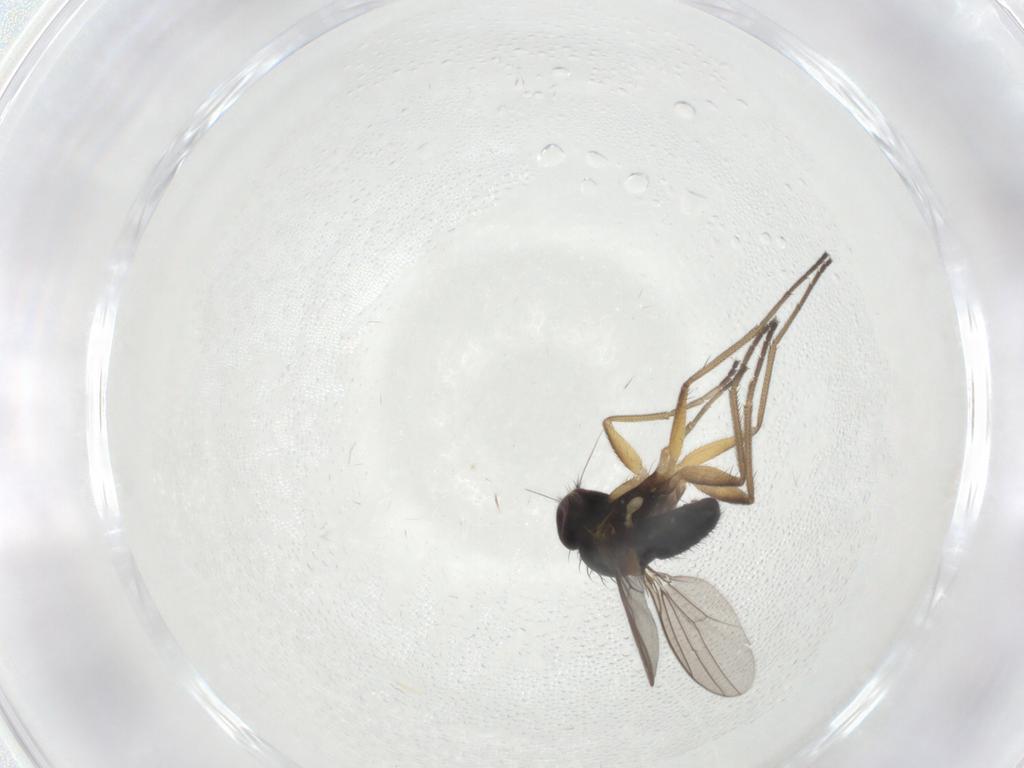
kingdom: Animalia
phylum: Arthropoda
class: Insecta
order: Diptera
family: Dolichopodidae
